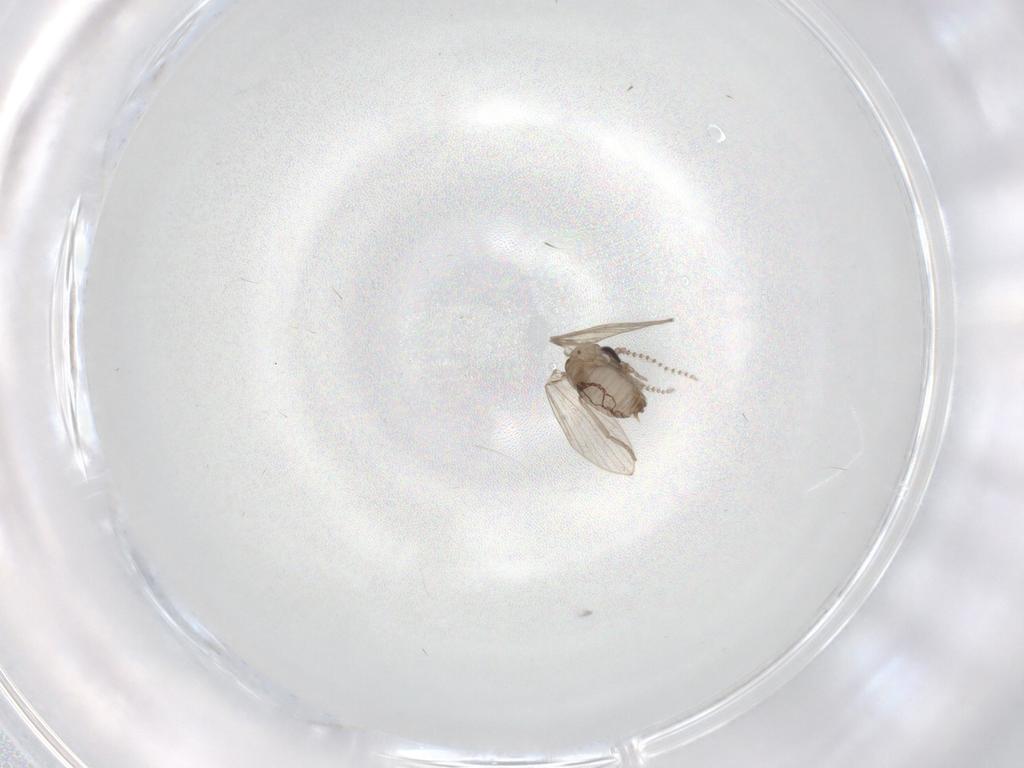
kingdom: Animalia
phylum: Arthropoda
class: Insecta
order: Diptera
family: Psychodidae
